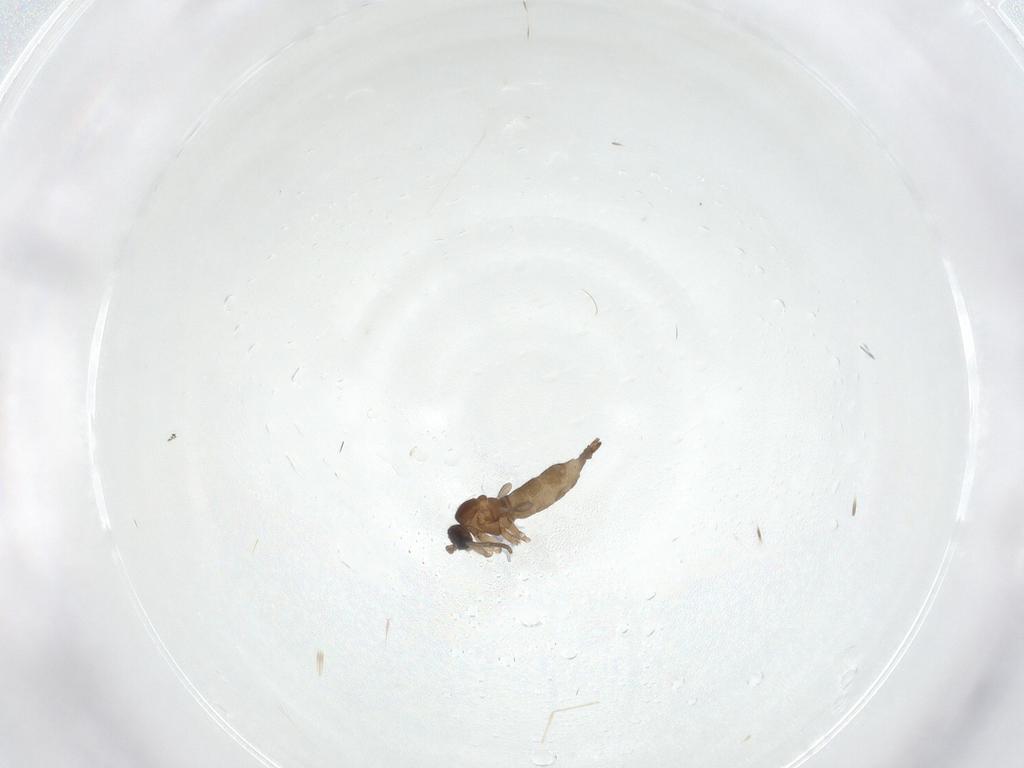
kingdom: Animalia
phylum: Arthropoda
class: Insecta
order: Diptera
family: Cecidomyiidae
